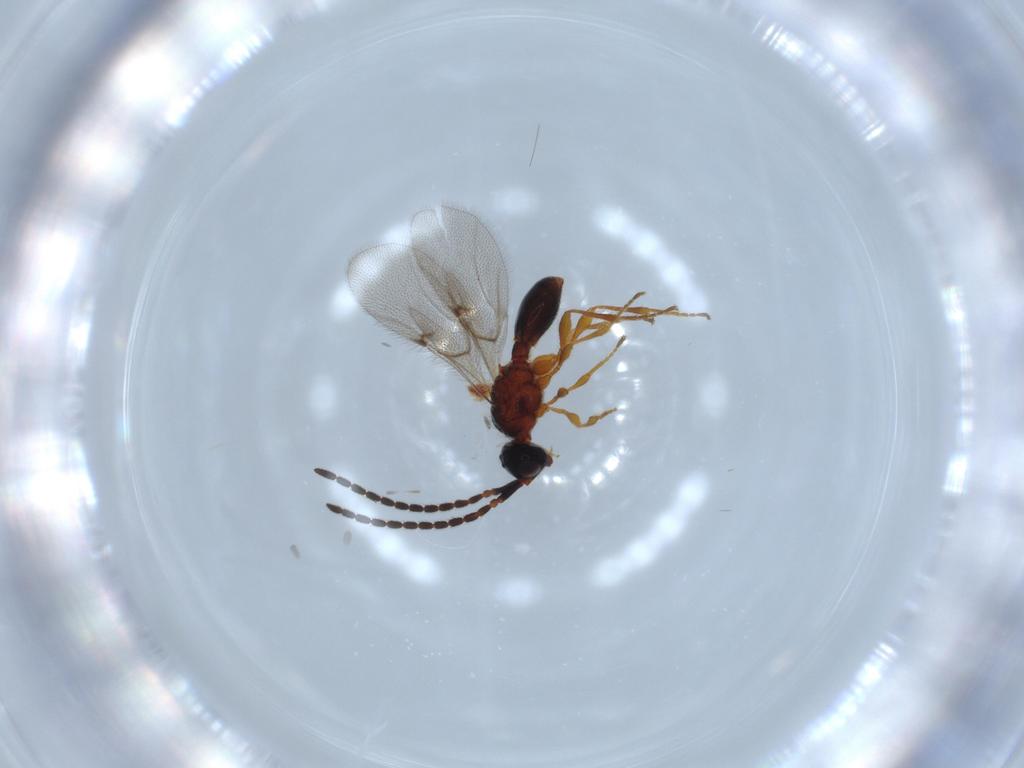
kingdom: Animalia
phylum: Arthropoda
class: Insecta
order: Hymenoptera
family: Diapriidae
